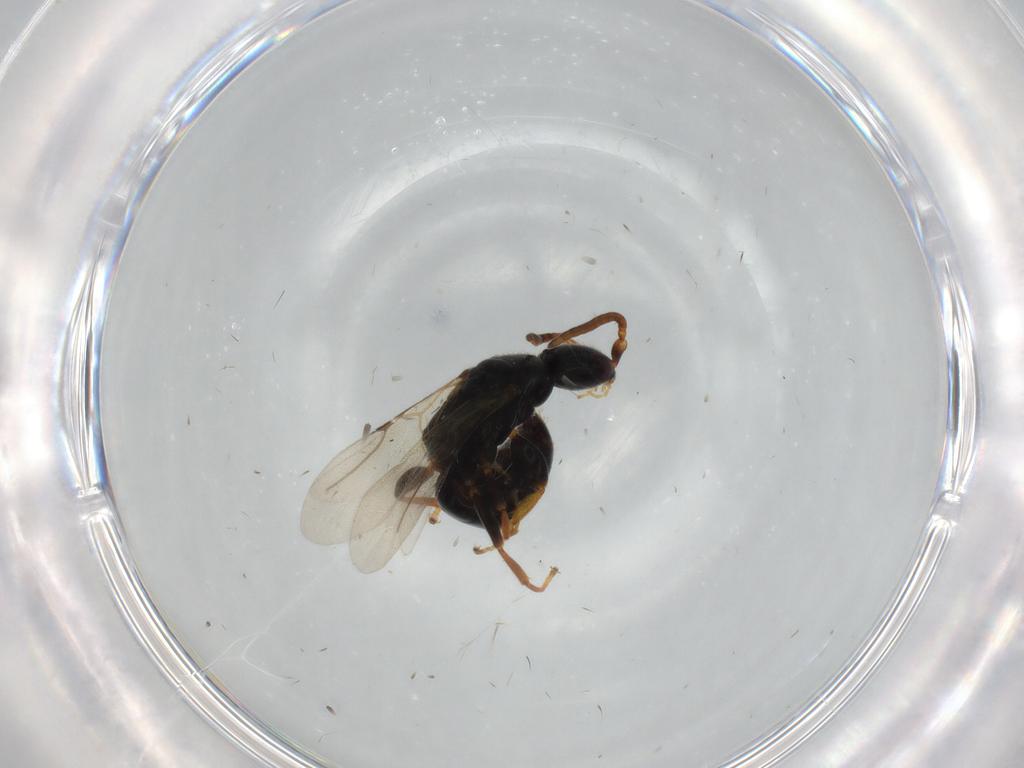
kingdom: Animalia
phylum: Arthropoda
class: Insecta
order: Hymenoptera
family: Bethylidae
